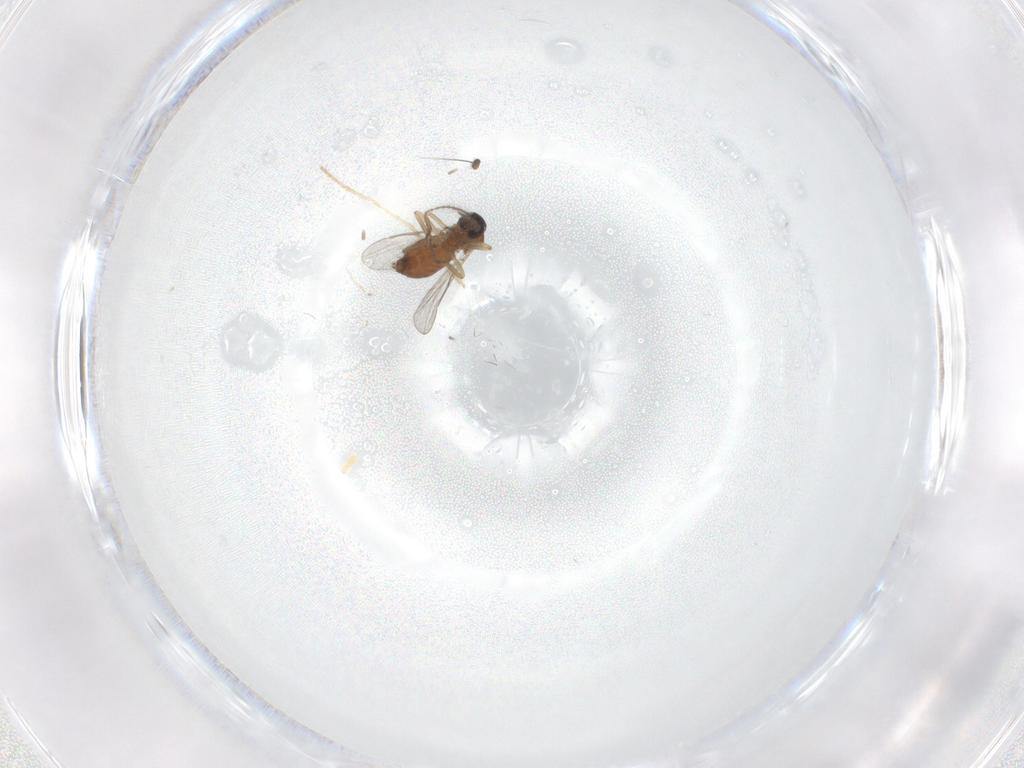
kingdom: Animalia
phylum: Arthropoda
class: Insecta
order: Diptera
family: Chironomidae
